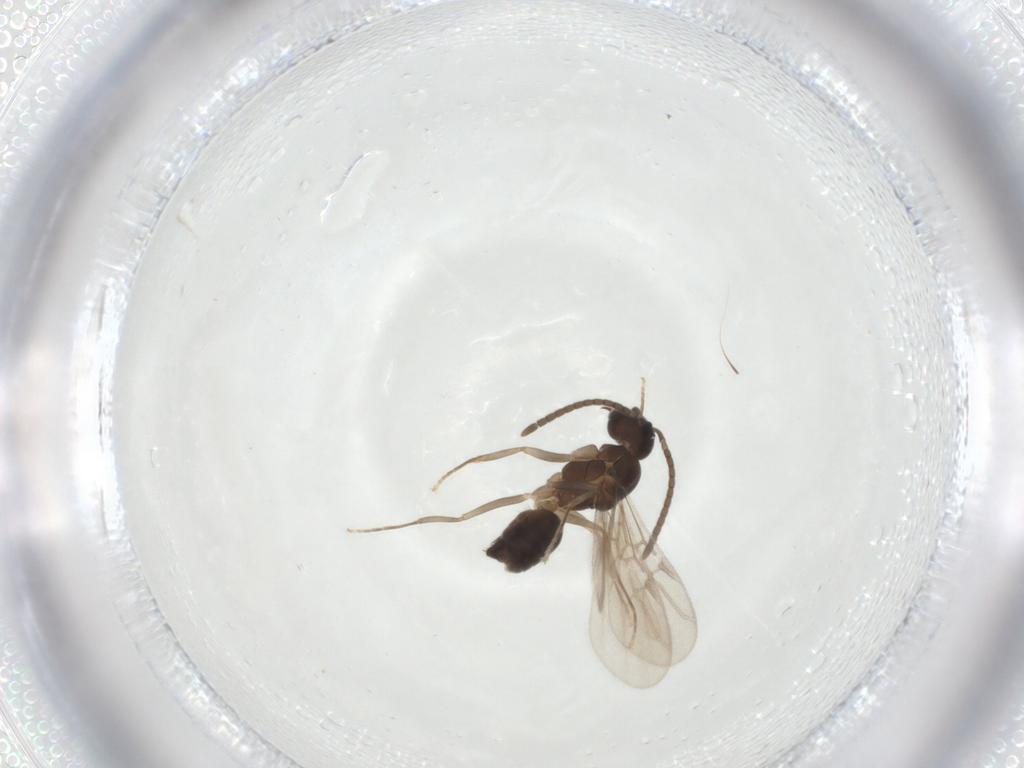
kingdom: Animalia
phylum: Arthropoda
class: Insecta
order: Hymenoptera
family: Formicidae
